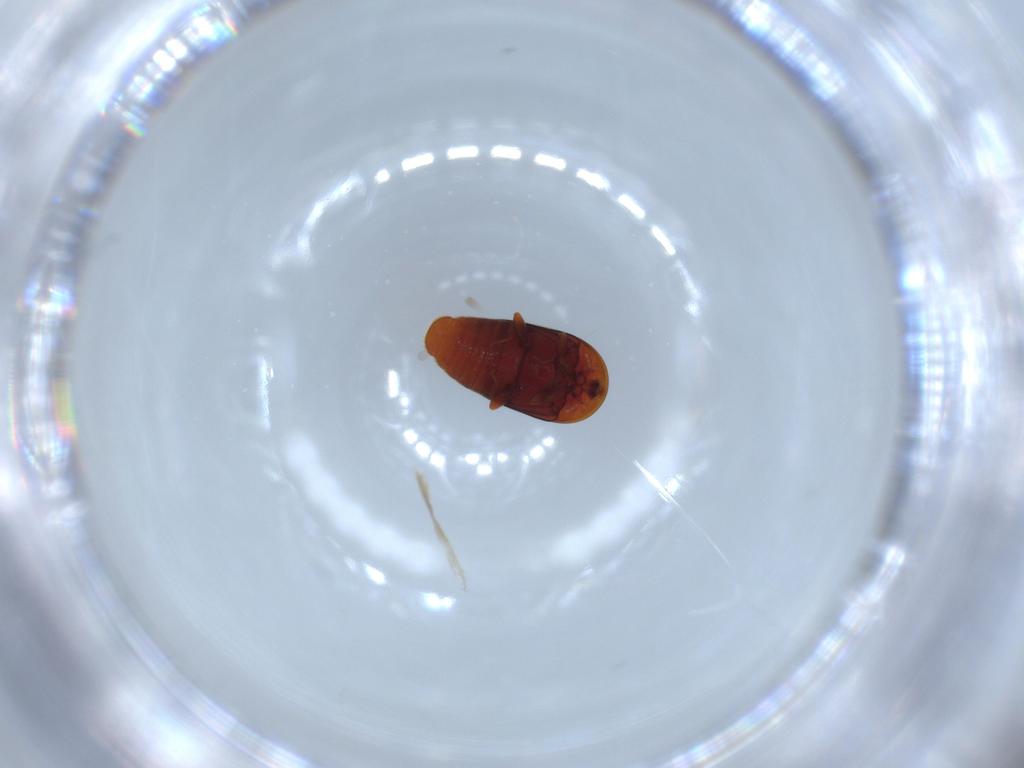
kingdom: Animalia
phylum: Arthropoda
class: Insecta
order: Coleoptera
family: Corylophidae
